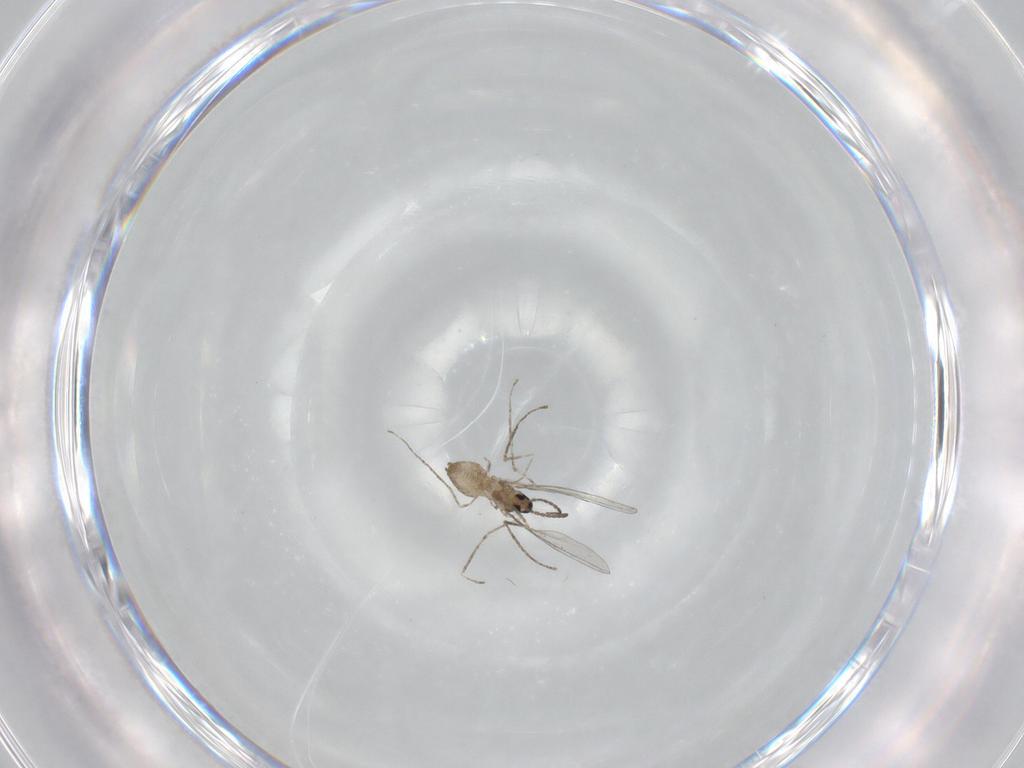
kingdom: Animalia
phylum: Arthropoda
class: Insecta
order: Diptera
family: Cecidomyiidae
